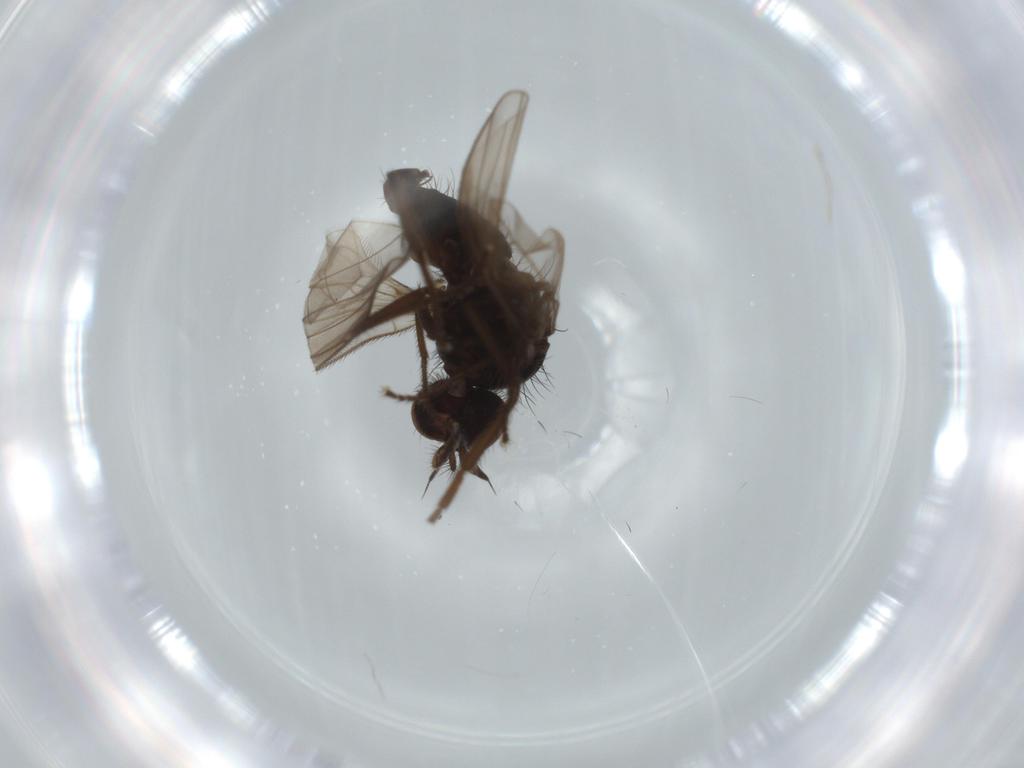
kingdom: Animalia
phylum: Arthropoda
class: Insecta
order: Diptera
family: Dolichopodidae
